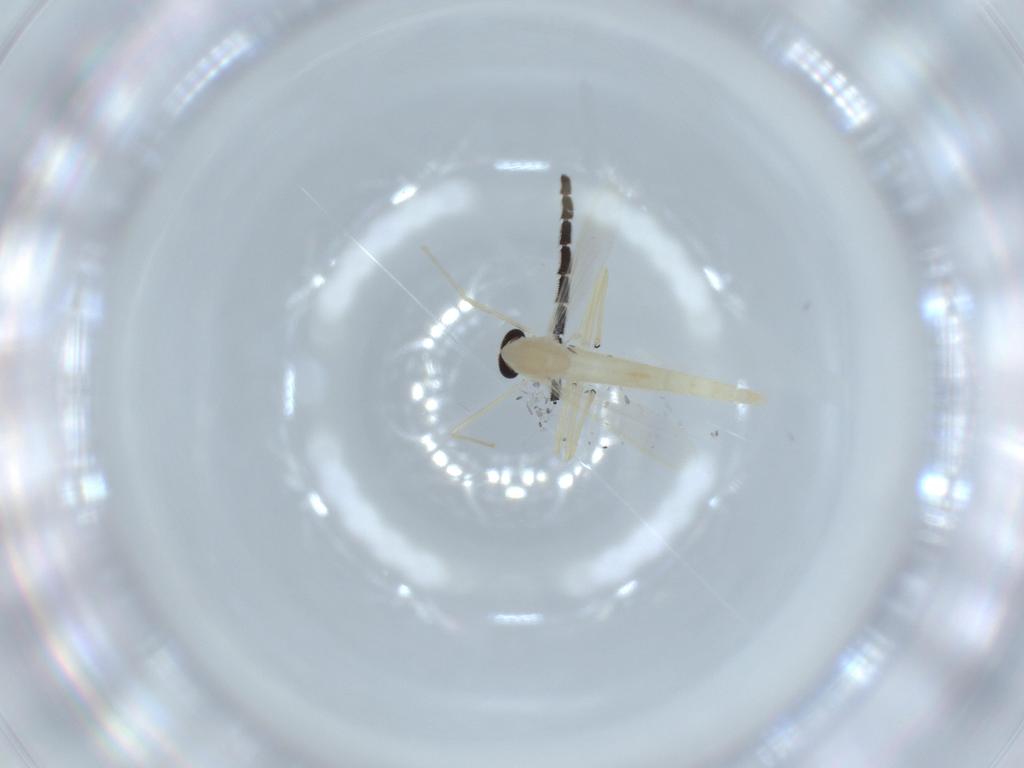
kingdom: Animalia
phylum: Arthropoda
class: Insecta
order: Diptera
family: Chironomidae
